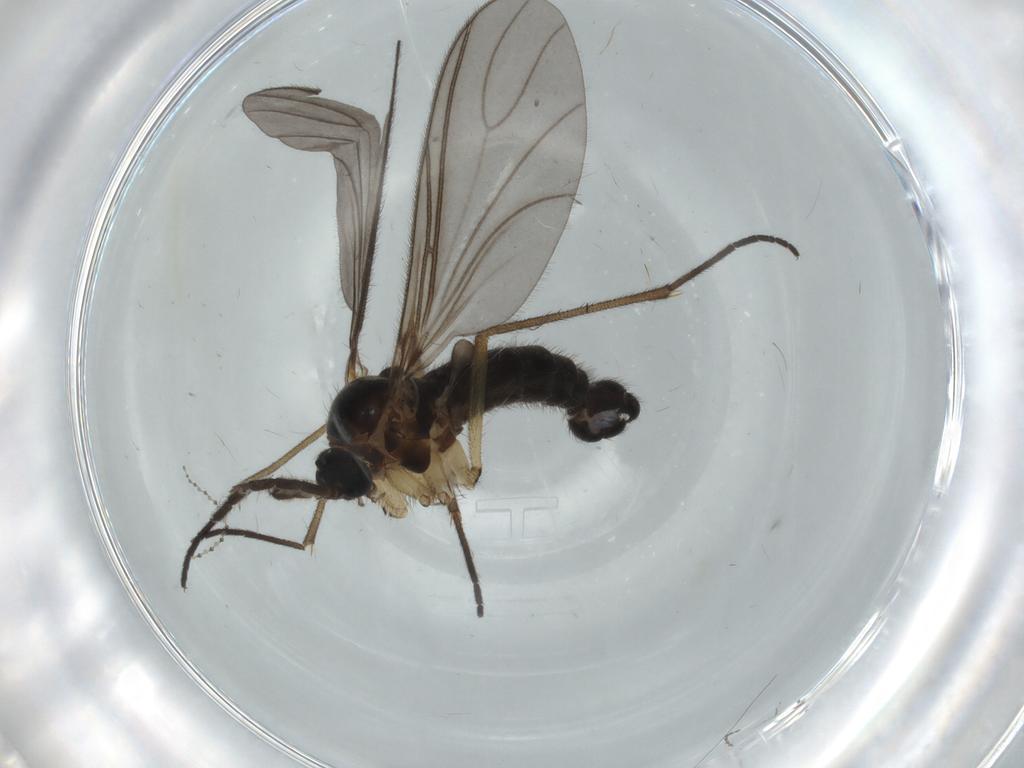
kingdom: Animalia
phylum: Arthropoda
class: Insecta
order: Diptera
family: Sciaridae
